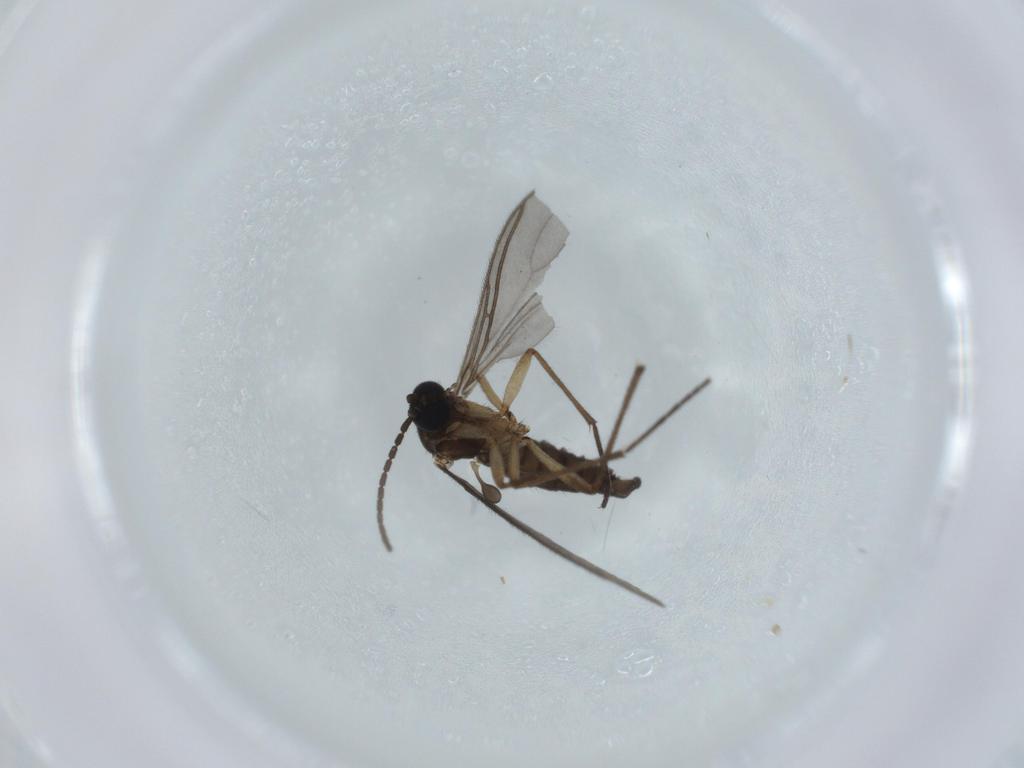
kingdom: Animalia
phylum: Arthropoda
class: Insecta
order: Diptera
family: Sciaridae
